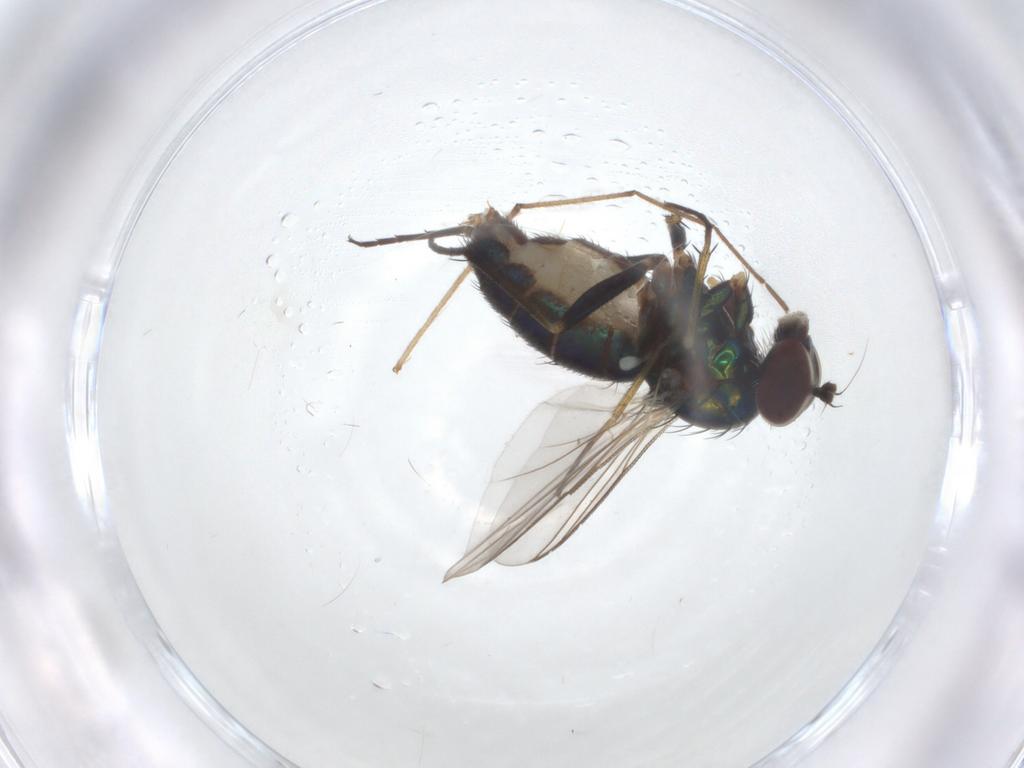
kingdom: Animalia
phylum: Arthropoda
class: Insecta
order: Diptera
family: Dolichopodidae
